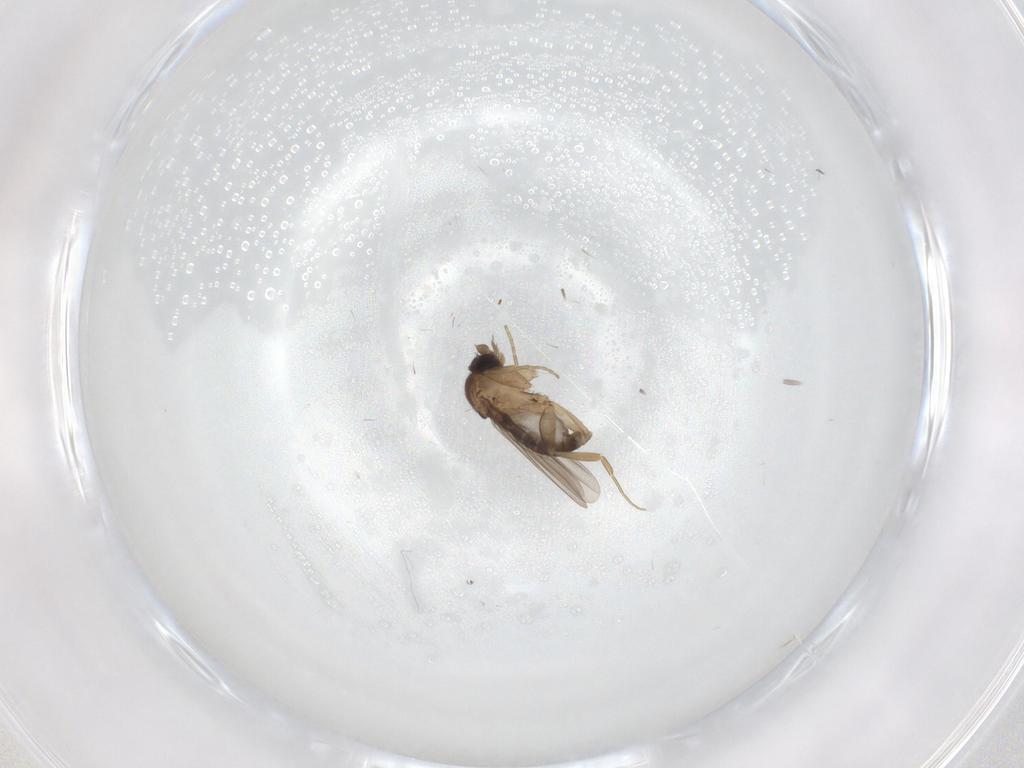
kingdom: Animalia
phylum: Arthropoda
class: Insecta
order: Diptera
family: Phoridae
